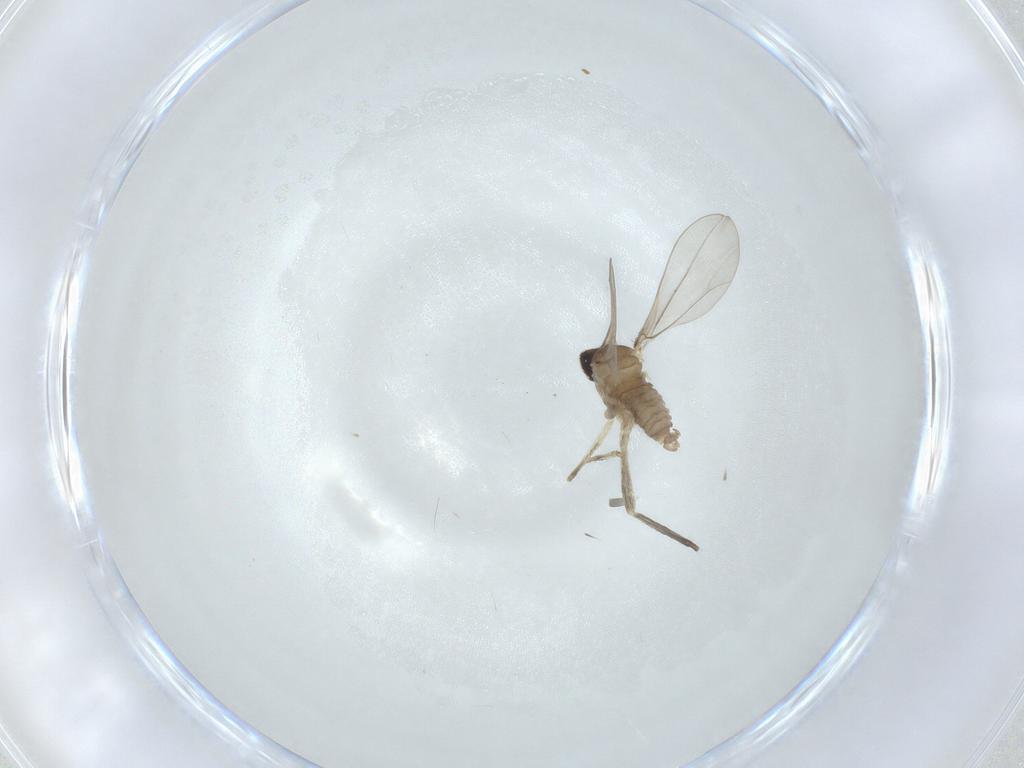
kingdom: Animalia
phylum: Arthropoda
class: Insecta
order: Diptera
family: Cecidomyiidae
